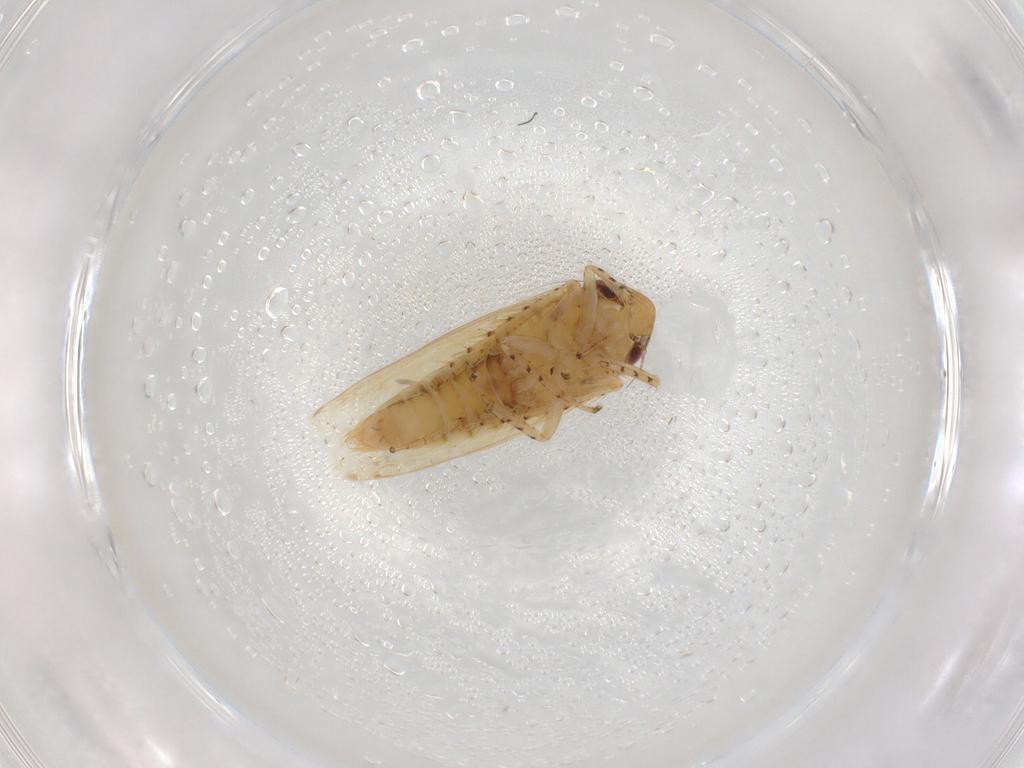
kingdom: Animalia
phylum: Arthropoda
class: Insecta
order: Hemiptera
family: Cicadellidae
